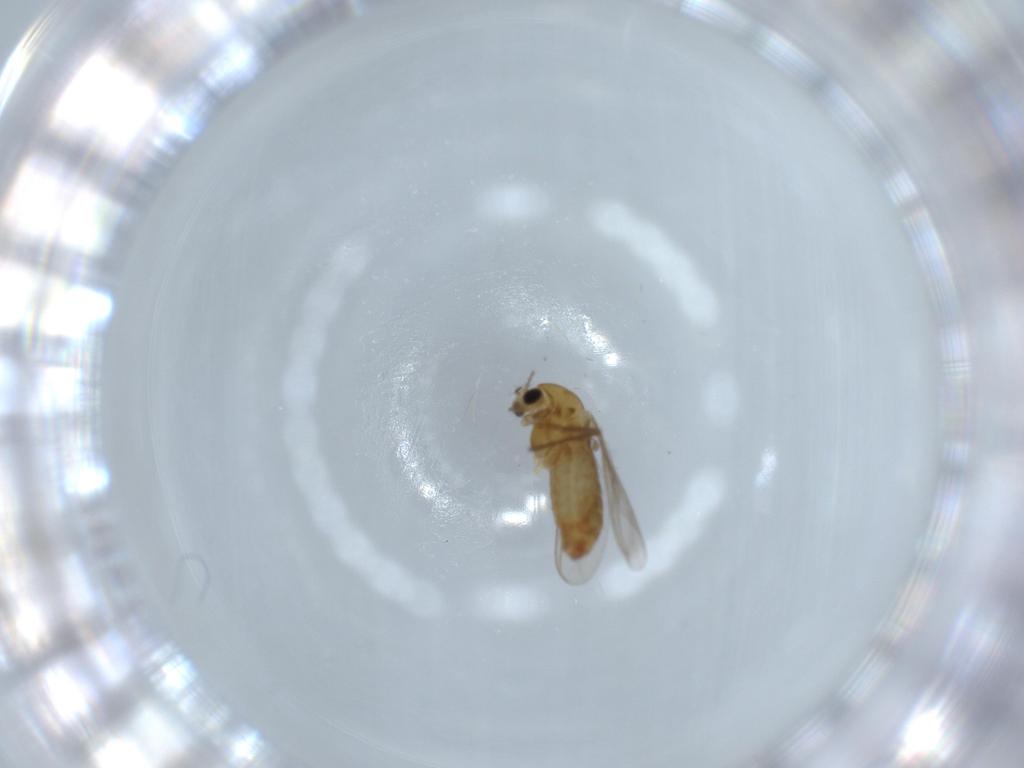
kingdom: Animalia
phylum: Arthropoda
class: Insecta
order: Diptera
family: Chironomidae
